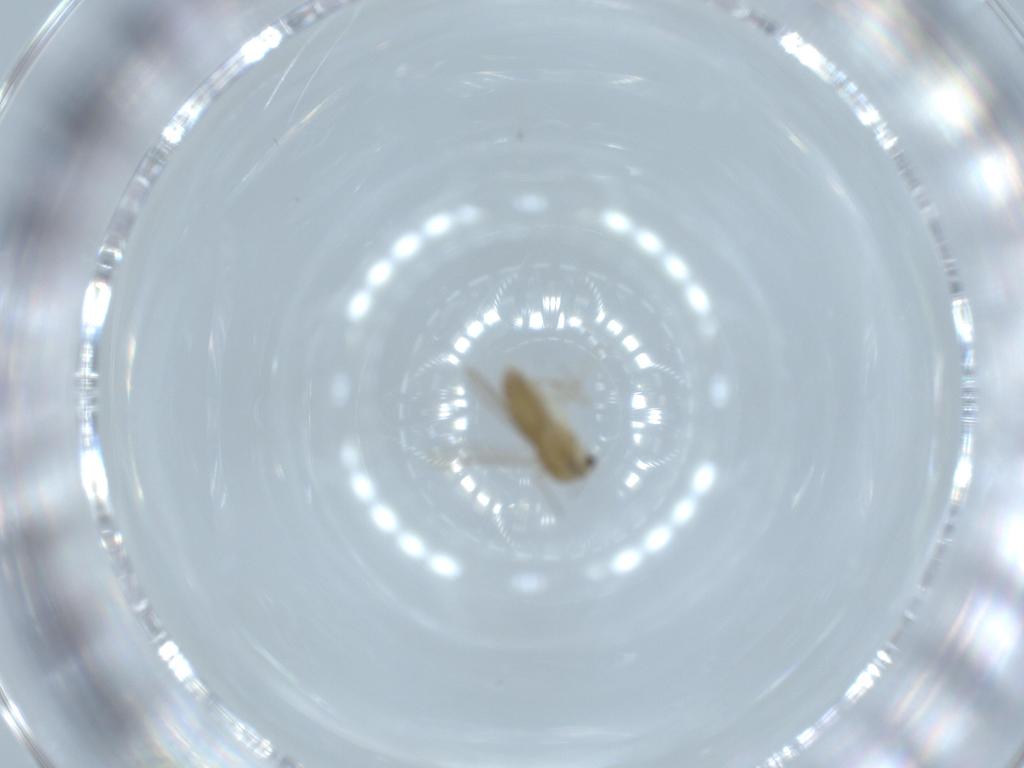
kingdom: Animalia
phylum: Arthropoda
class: Insecta
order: Diptera
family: Chironomidae
